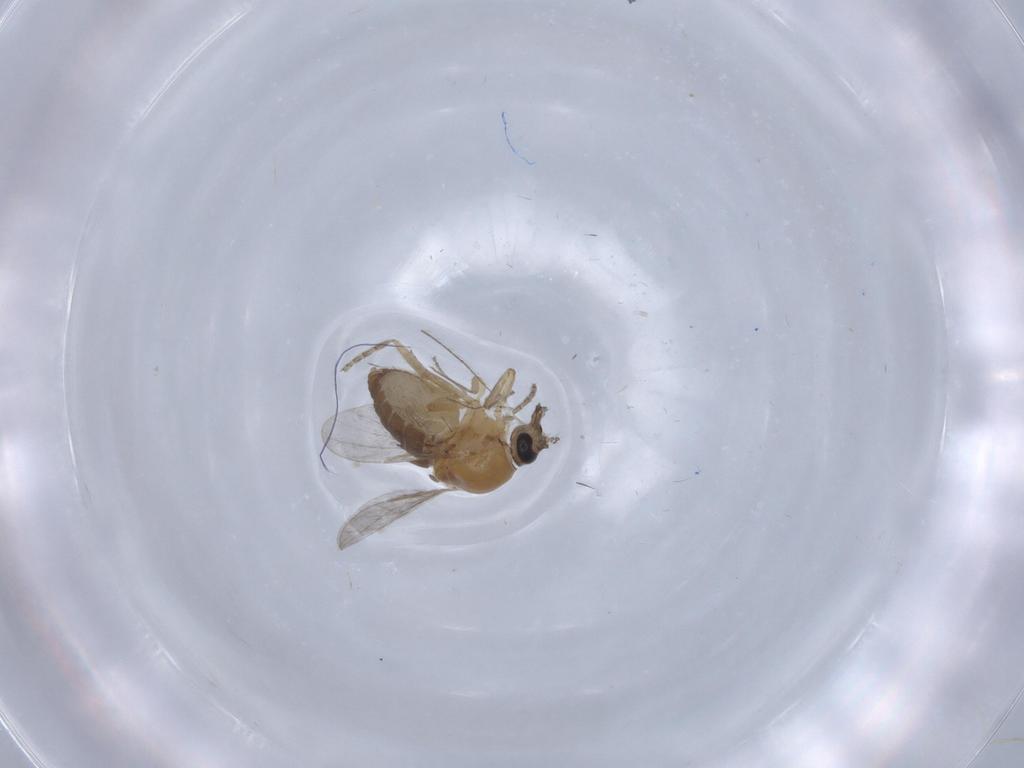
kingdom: Animalia
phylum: Arthropoda
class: Insecta
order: Diptera
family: Ceratopogonidae
